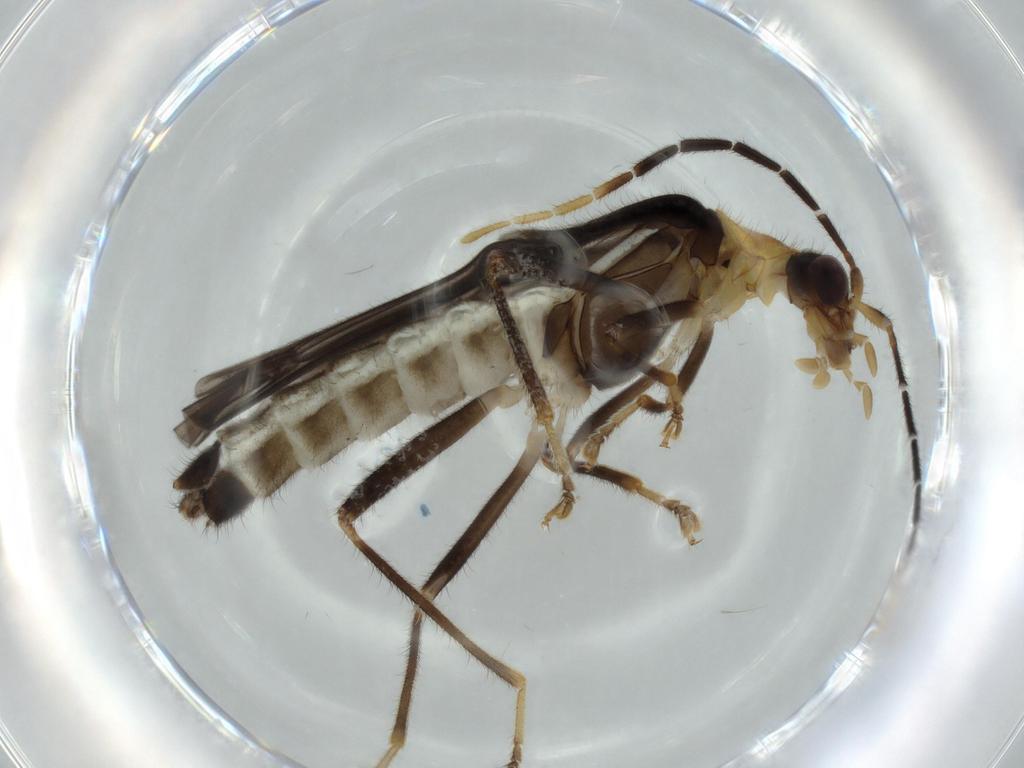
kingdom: Animalia
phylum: Arthropoda
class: Insecta
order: Coleoptera
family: Cantharidae
